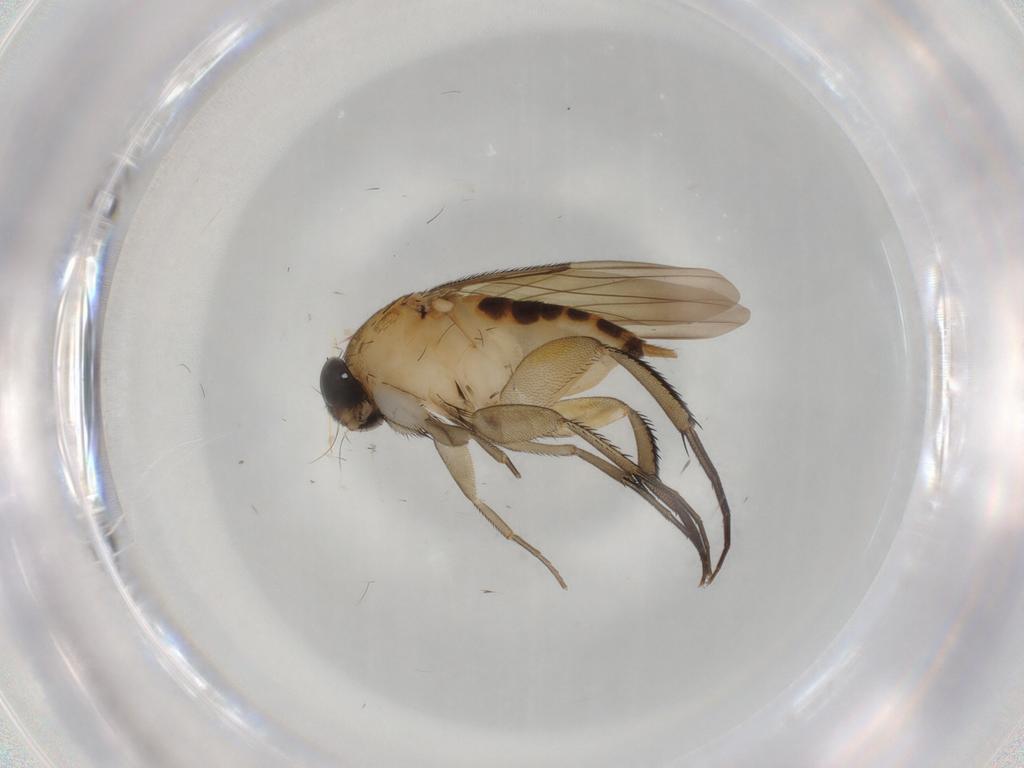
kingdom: Animalia
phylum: Arthropoda
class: Insecta
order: Diptera
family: Phoridae
